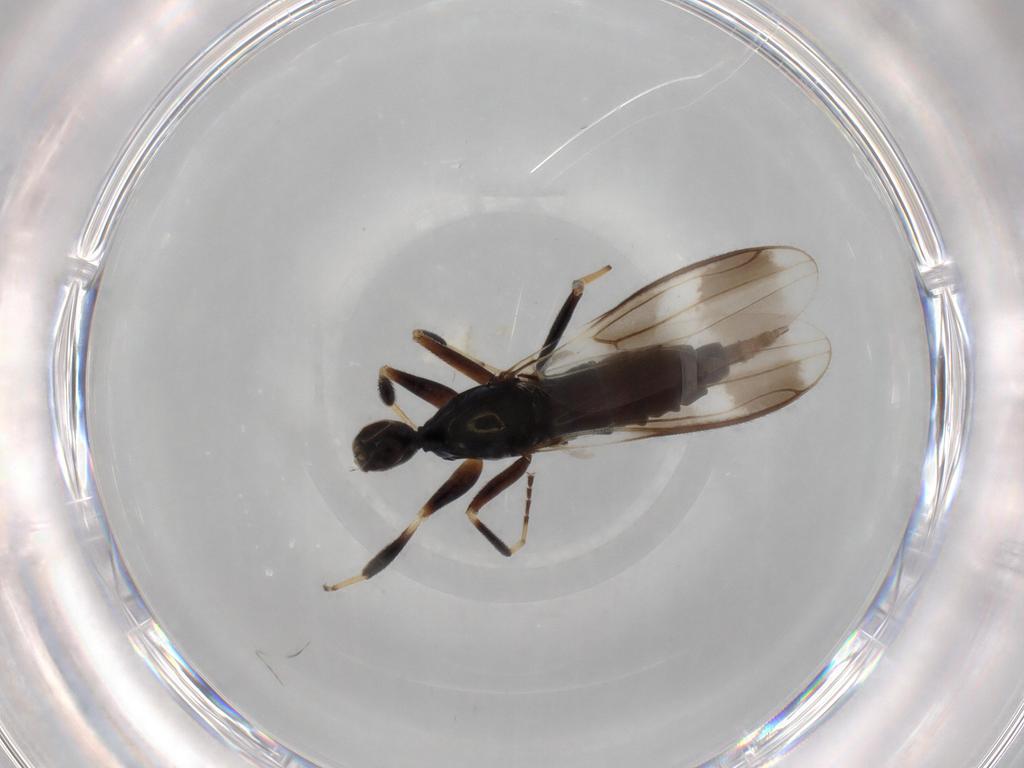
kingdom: Animalia
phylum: Arthropoda
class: Insecta
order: Diptera
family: Hybotidae
